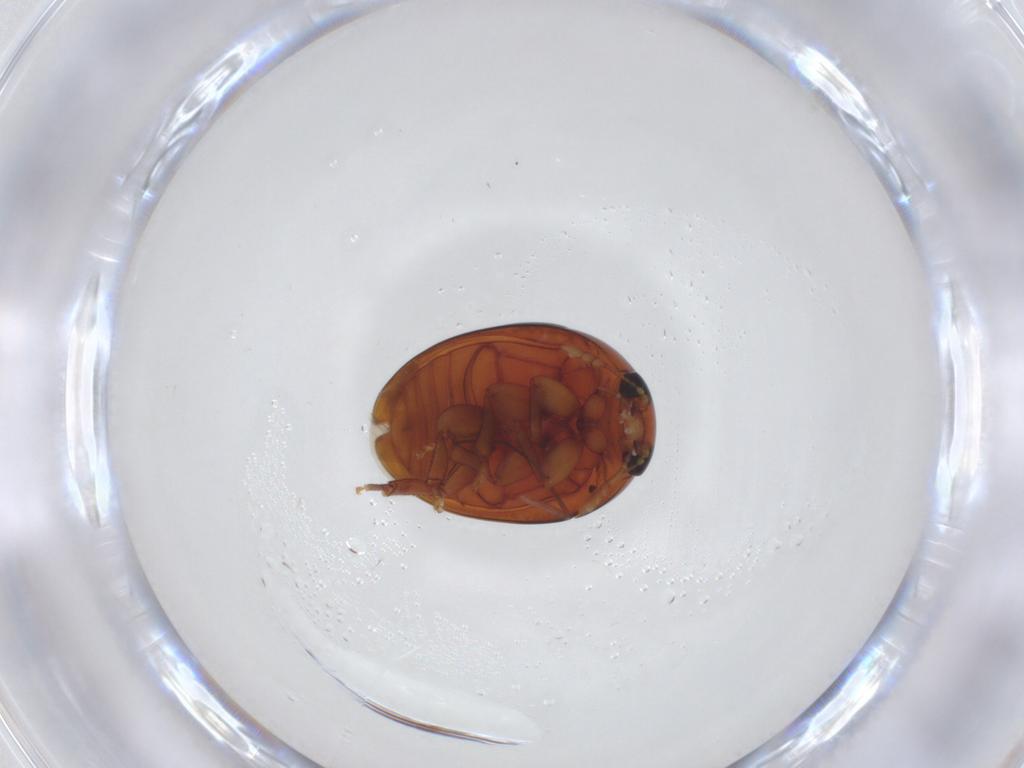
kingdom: Animalia
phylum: Arthropoda
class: Insecta
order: Coleoptera
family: Phalacridae
